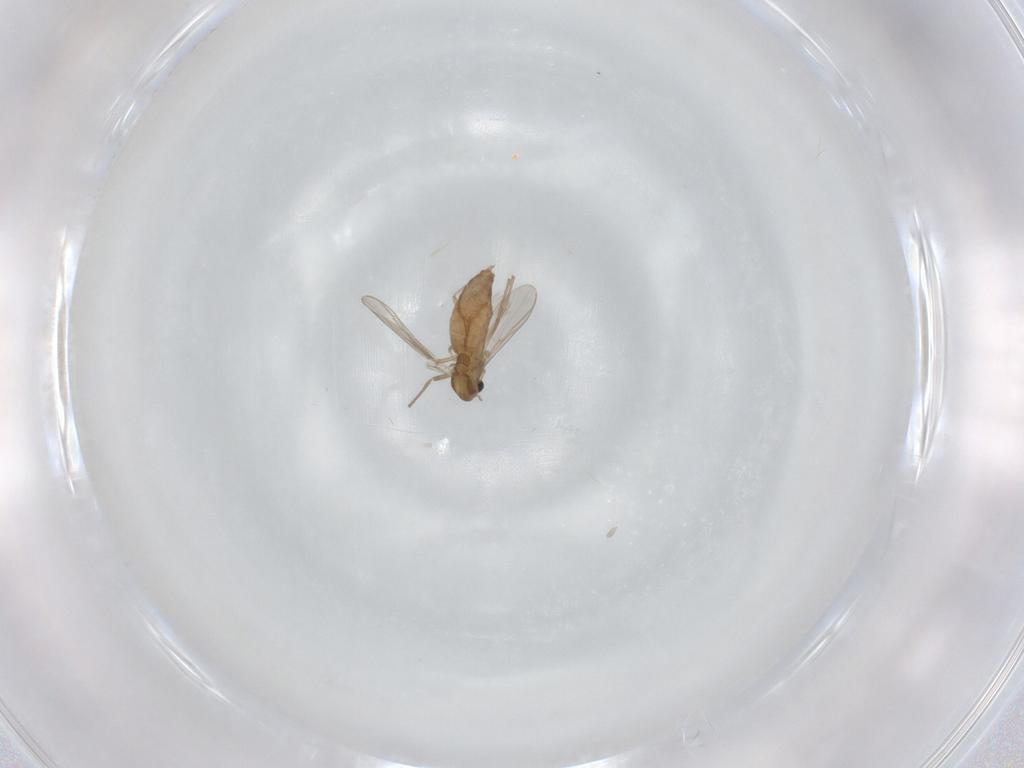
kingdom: Animalia
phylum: Arthropoda
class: Insecta
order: Diptera
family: Chironomidae
